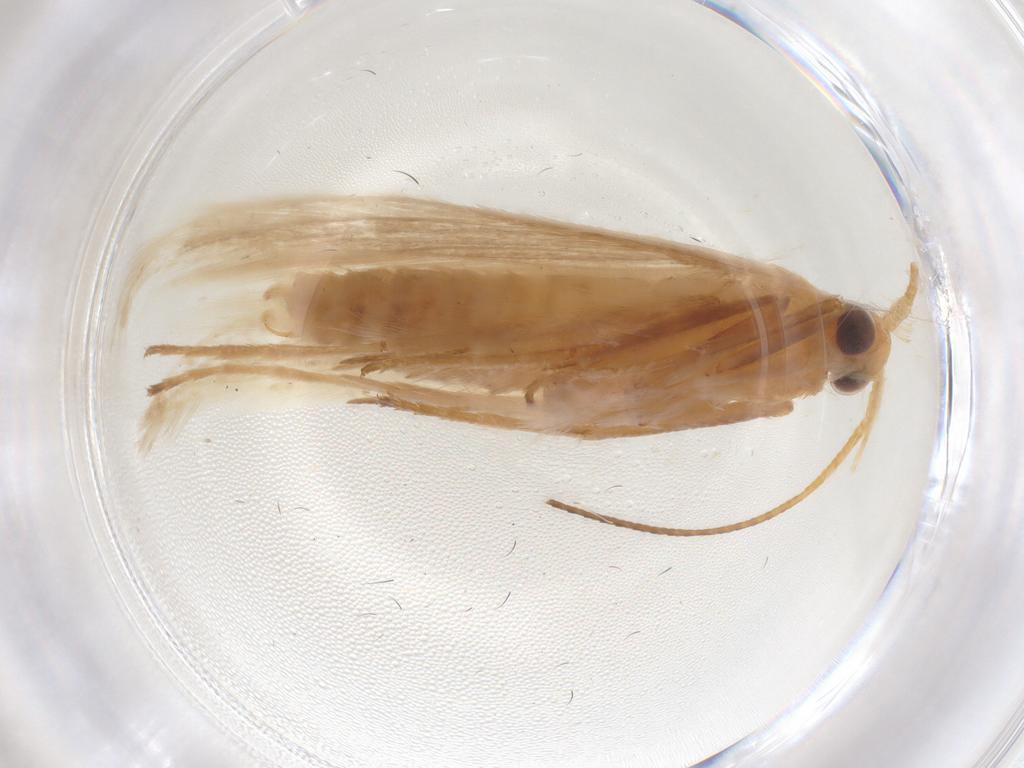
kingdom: Animalia
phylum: Arthropoda
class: Insecta
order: Lepidoptera
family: Coleophoridae
